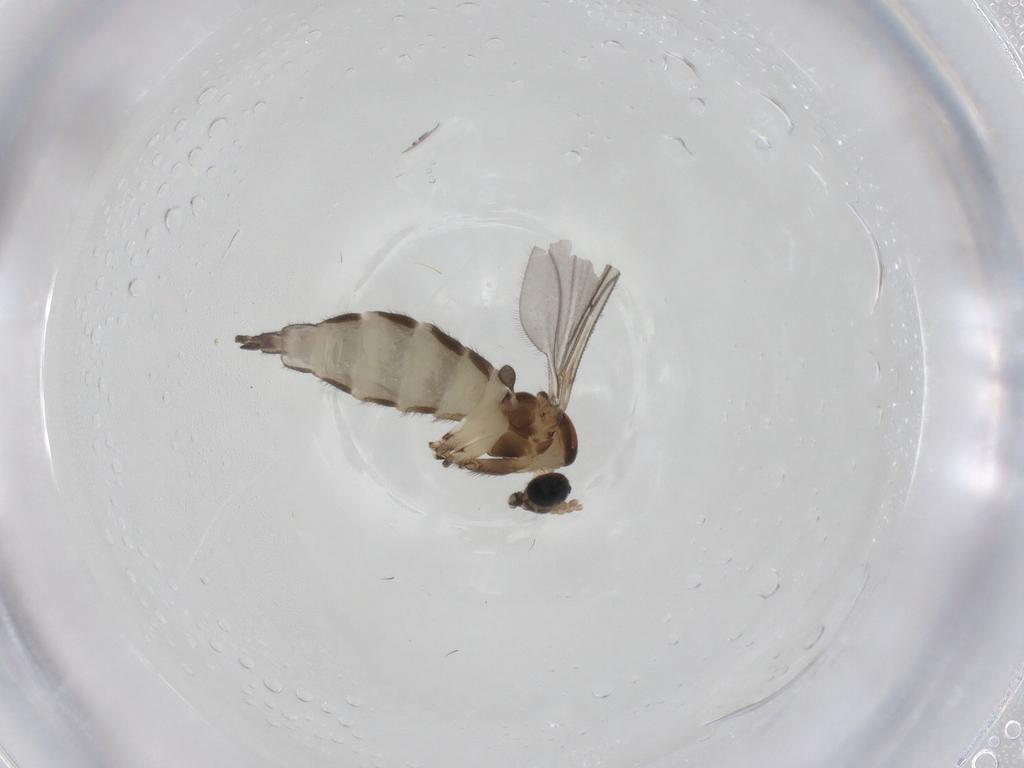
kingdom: Animalia
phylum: Arthropoda
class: Insecta
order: Diptera
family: Sciaridae
